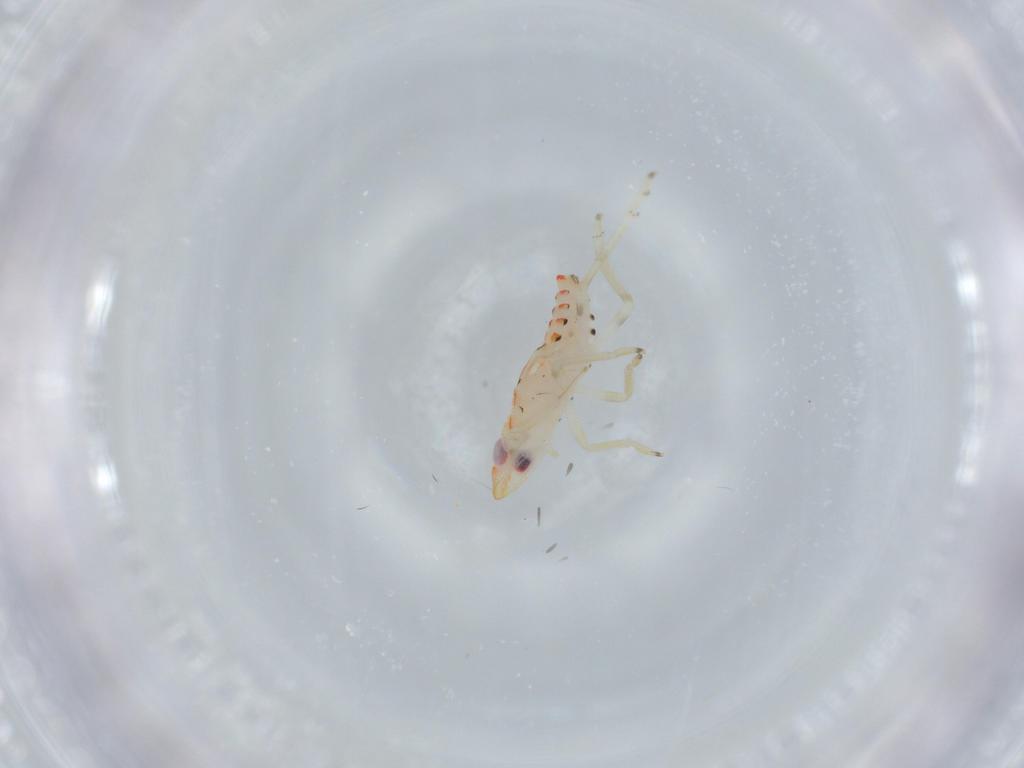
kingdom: Animalia
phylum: Arthropoda
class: Insecta
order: Hemiptera
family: Tropiduchidae
